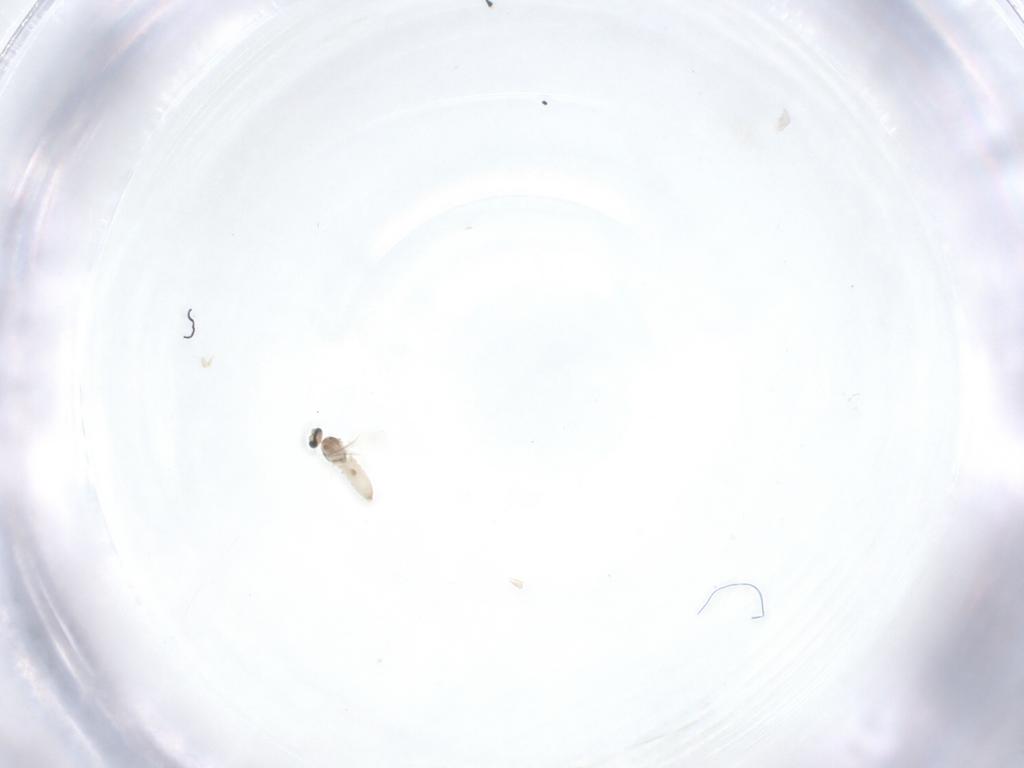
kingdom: Animalia
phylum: Arthropoda
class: Insecta
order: Diptera
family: Ceratopogonidae
